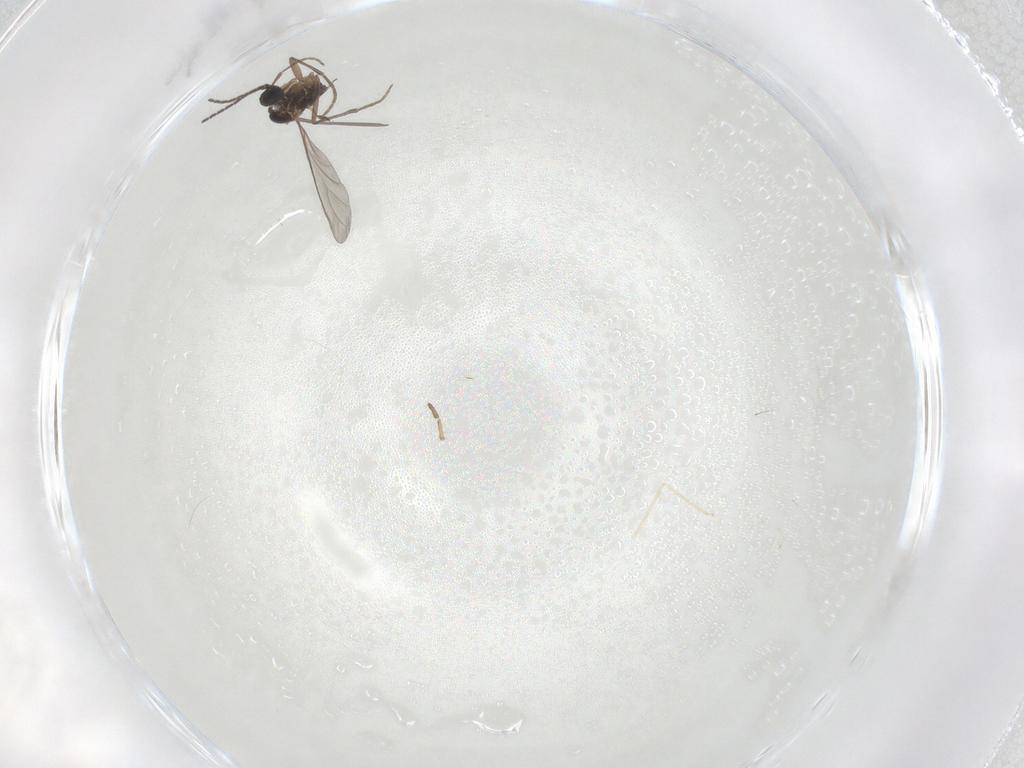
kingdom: Animalia
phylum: Arthropoda
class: Insecta
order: Diptera
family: Sciaridae
